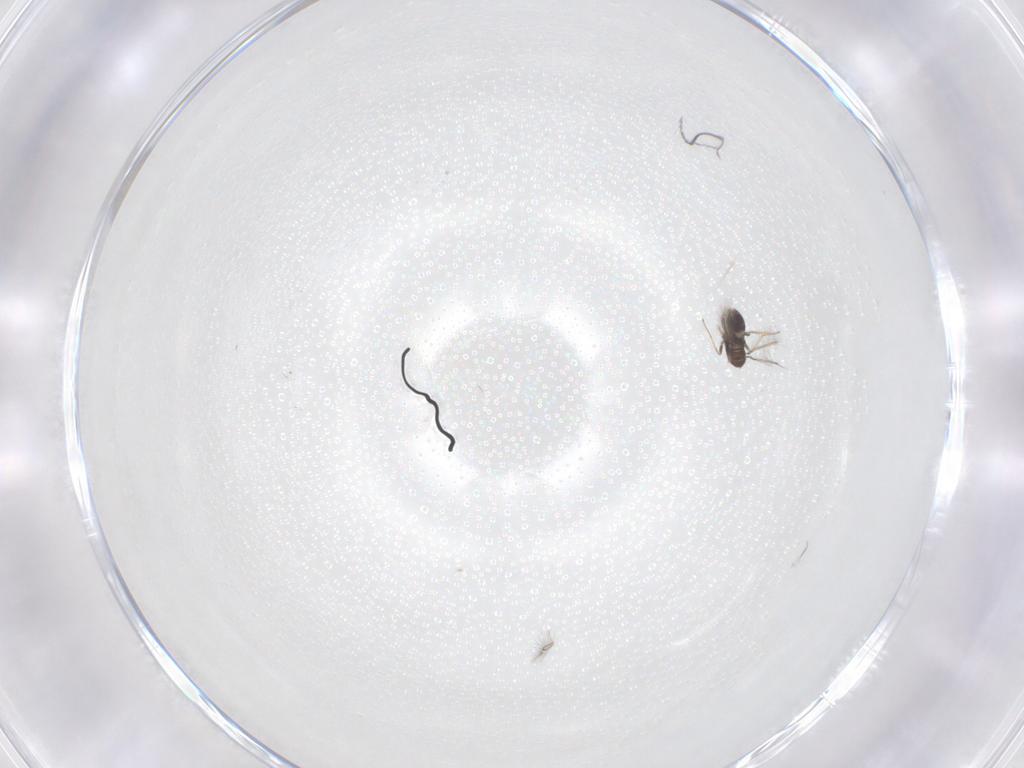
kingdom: Animalia
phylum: Arthropoda
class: Insecta
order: Hymenoptera
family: Mymaridae
